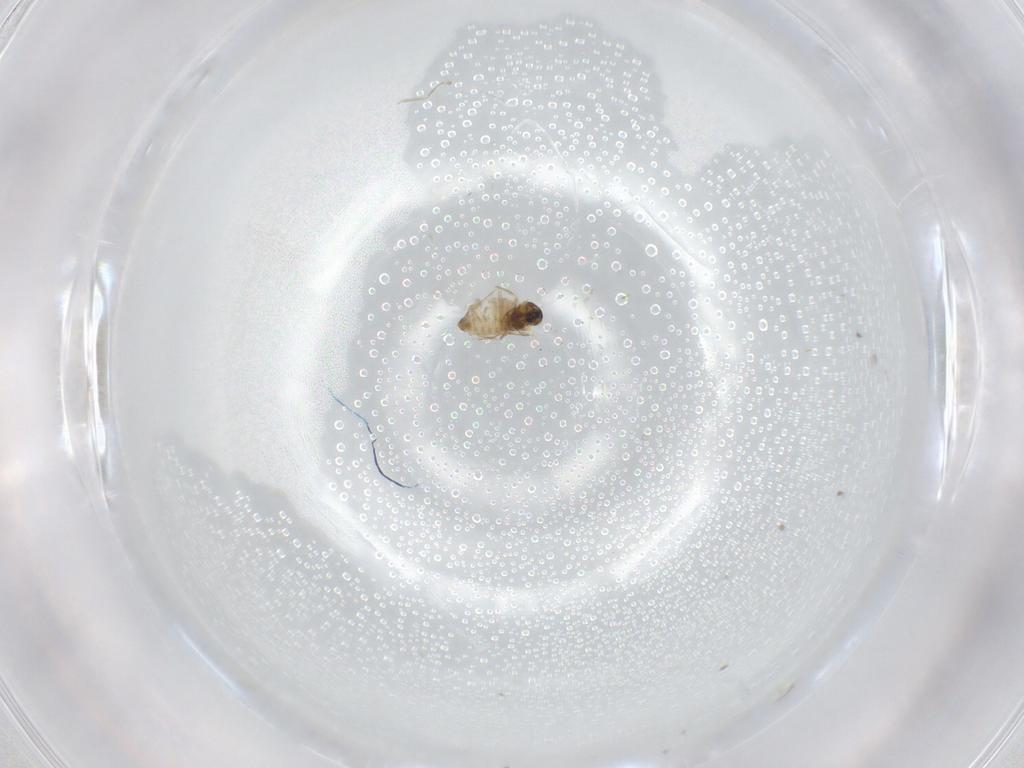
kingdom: Animalia
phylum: Arthropoda
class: Insecta
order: Diptera
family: Cecidomyiidae
